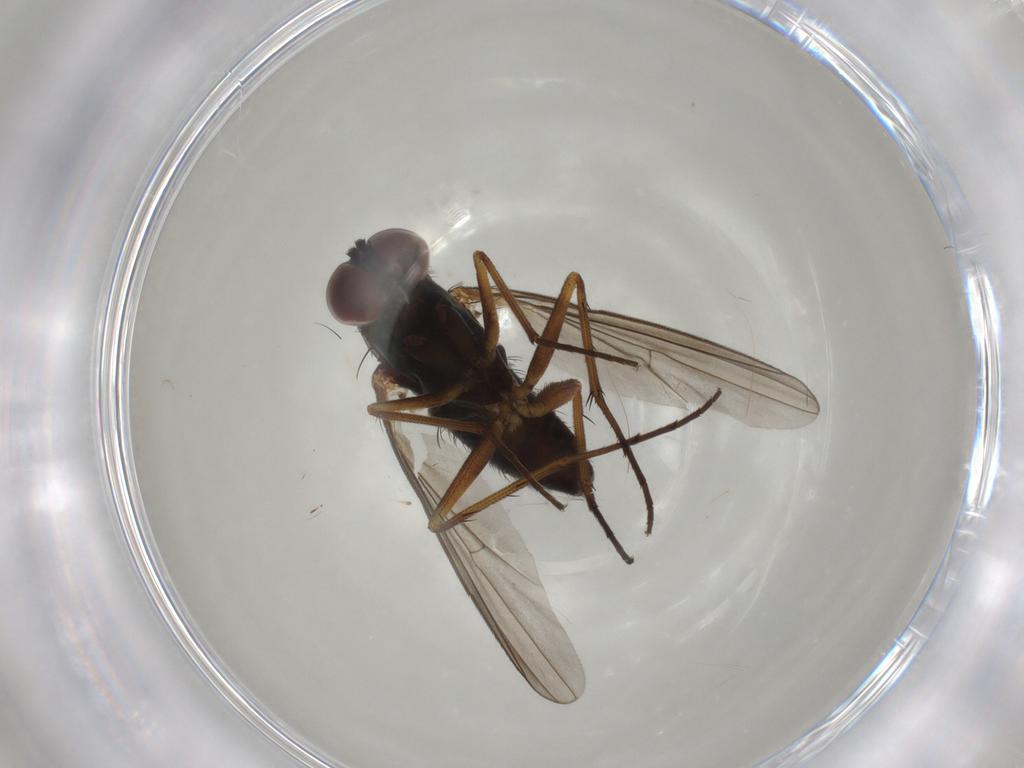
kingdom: Animalia
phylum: Arthropoda
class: Insecta
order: Diptera
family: Dolichopodidae
